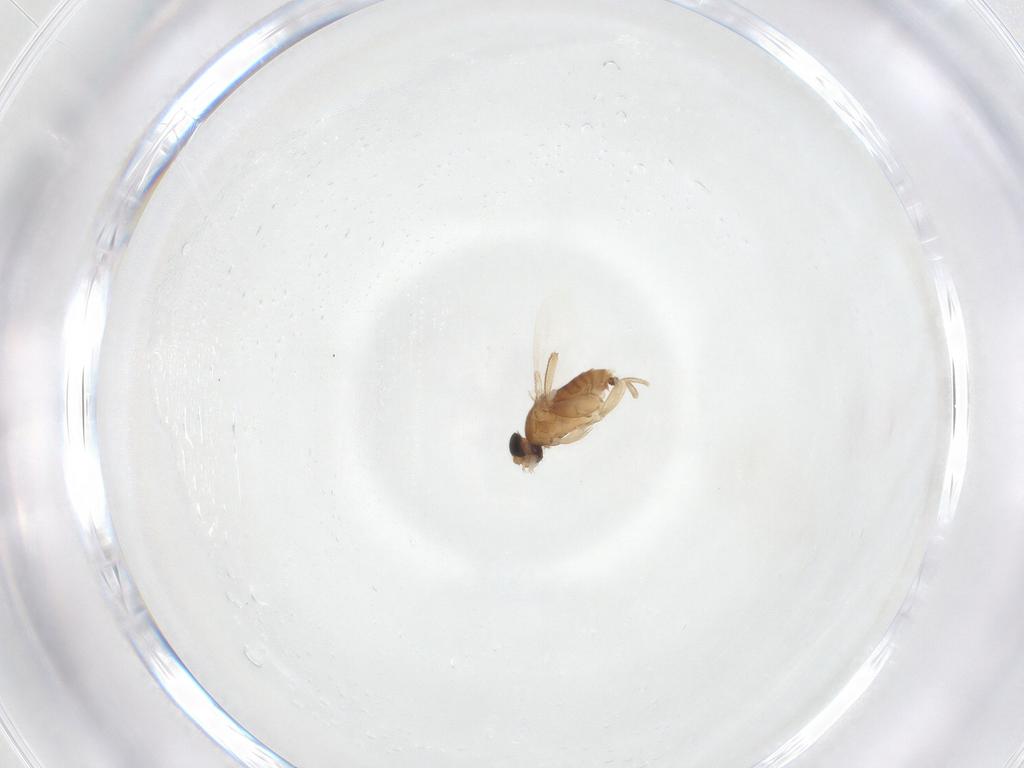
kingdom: Animalia
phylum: Arthropoda
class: Insecta
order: Diptera
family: Phoridae
